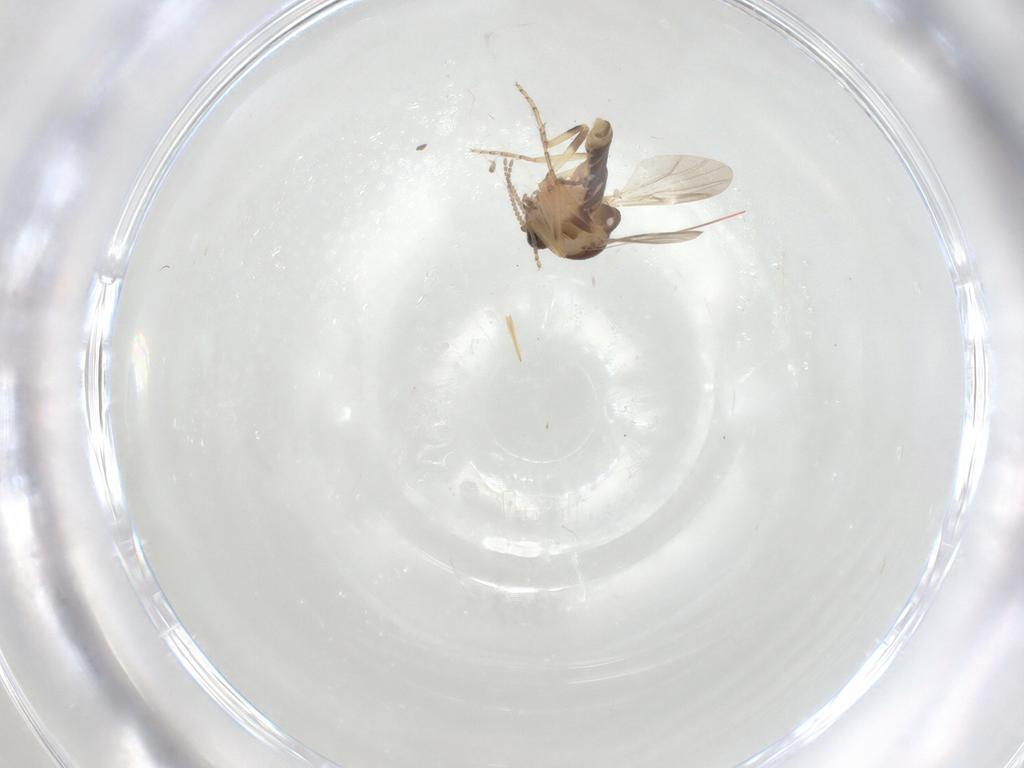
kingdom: Animalia
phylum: Arthropoda
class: Insecta
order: Diptera
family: Ceratopogonidae
